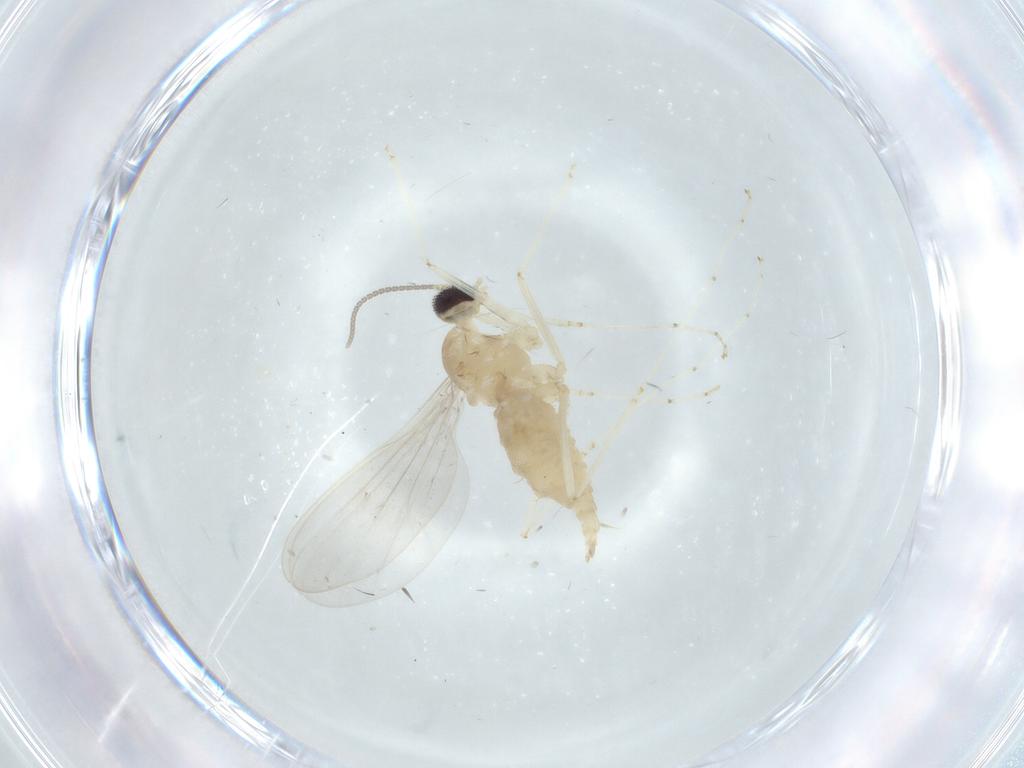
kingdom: Animalia
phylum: Arthropoda
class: Insecta
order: Diptera
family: Cecidomyiidae
